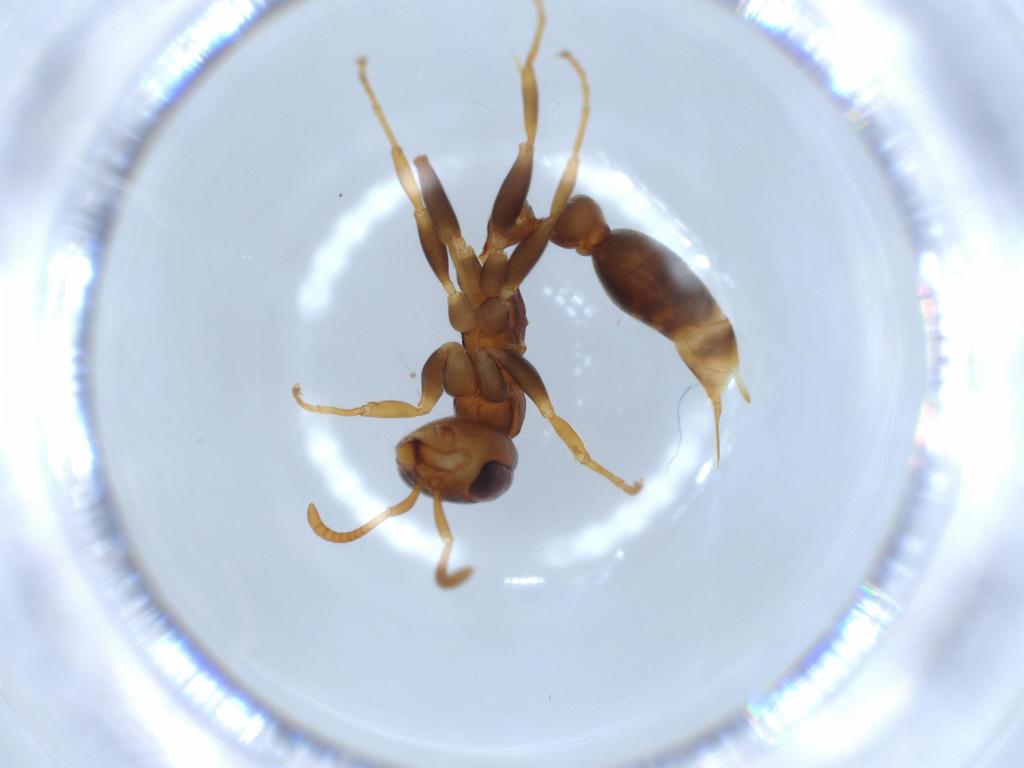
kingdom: Animalia
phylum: Arthropoda
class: Insecta
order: Hymenoptera
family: Formicidae
